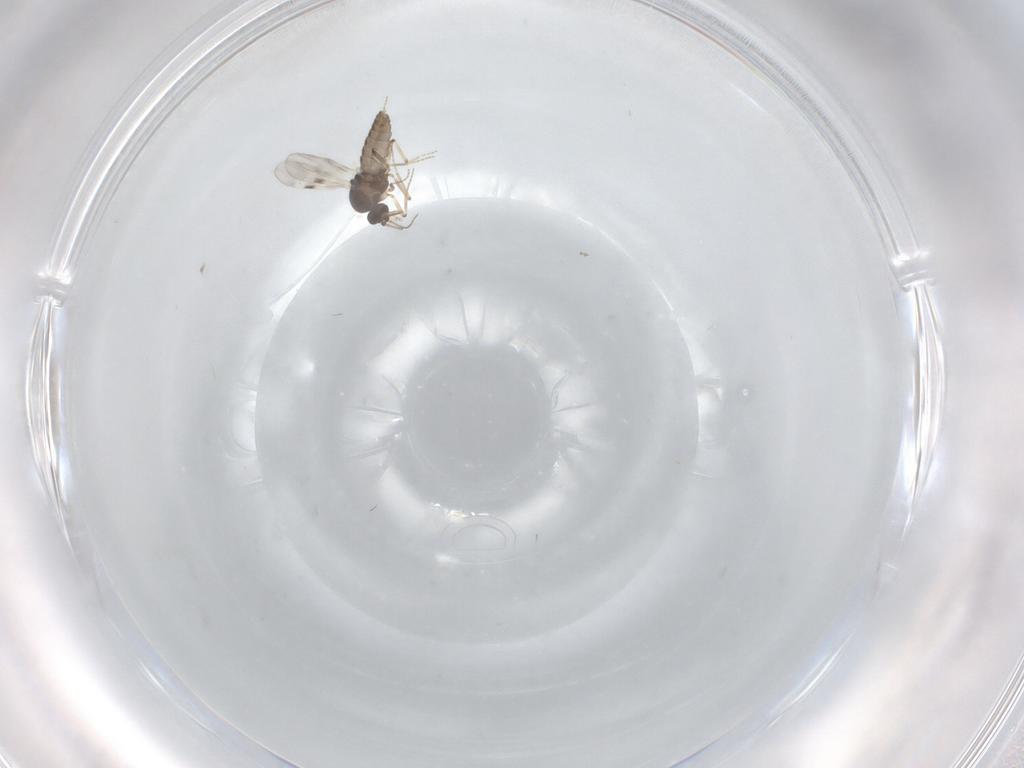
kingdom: Animalia
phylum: Arthropoda
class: Insecta
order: Diptera
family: Cecidomyiidae
